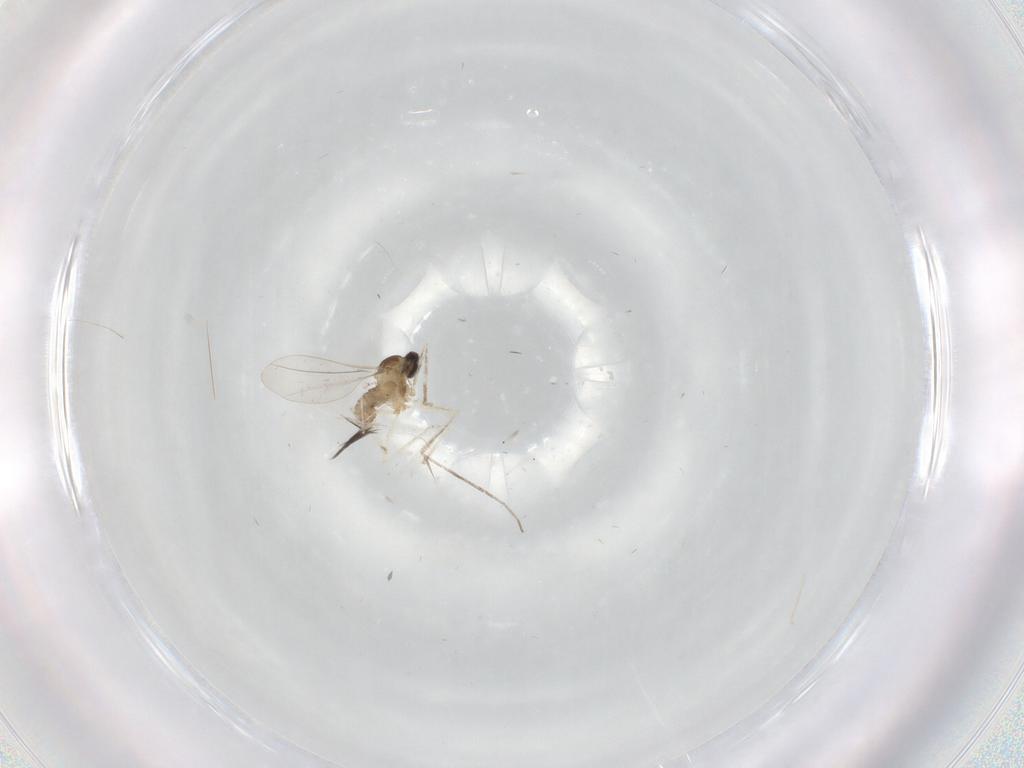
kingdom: Animalia
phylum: Arthropoda
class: Insecta
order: Diptera
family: Cecidomyiidae
